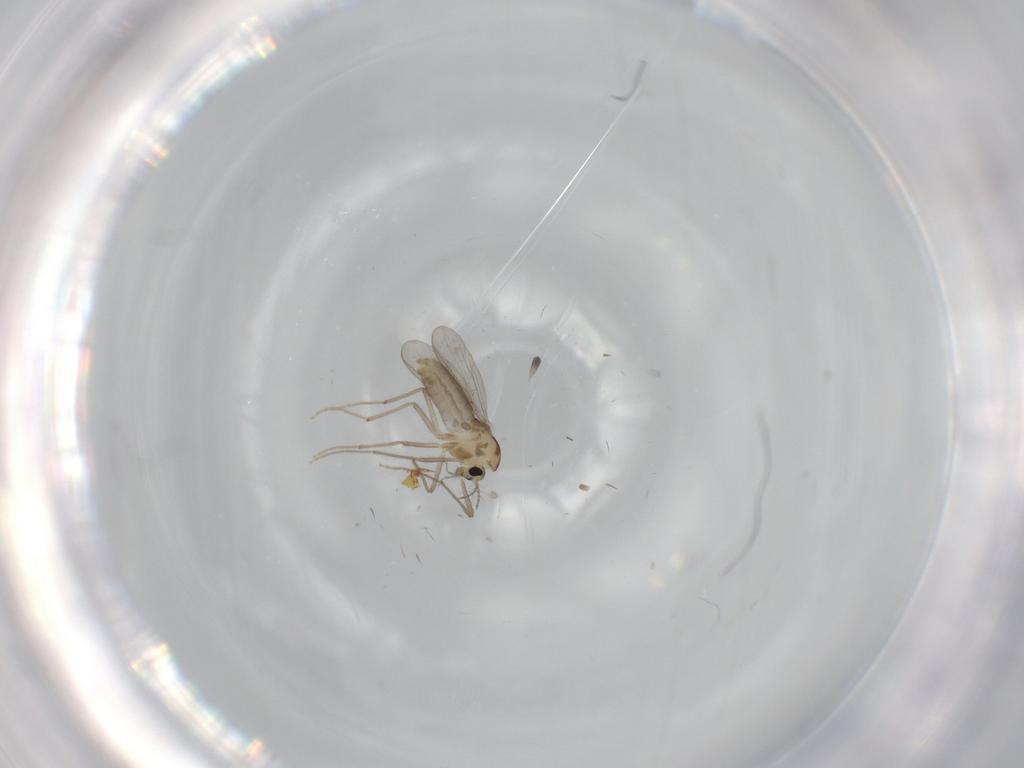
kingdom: Animalia
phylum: Arthropoda
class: Insecta
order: Diptera
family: Chironomidae
